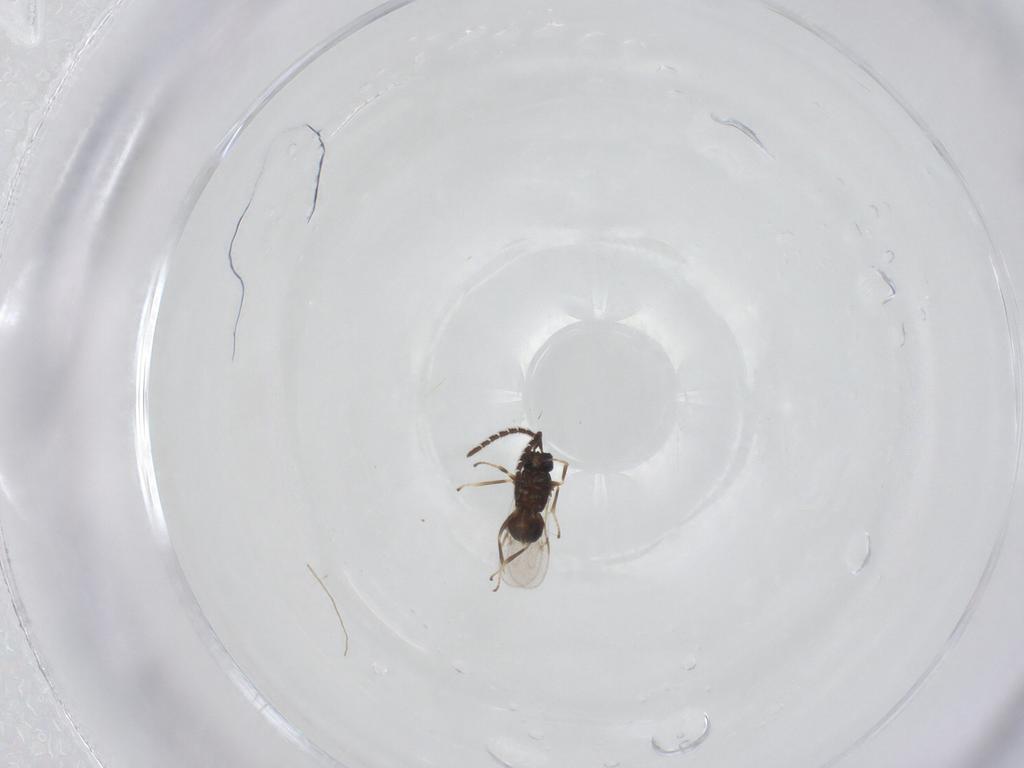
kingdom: Animalia
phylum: Arthropoda
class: Insecta
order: Hymenoptera
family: Encyrtidae
